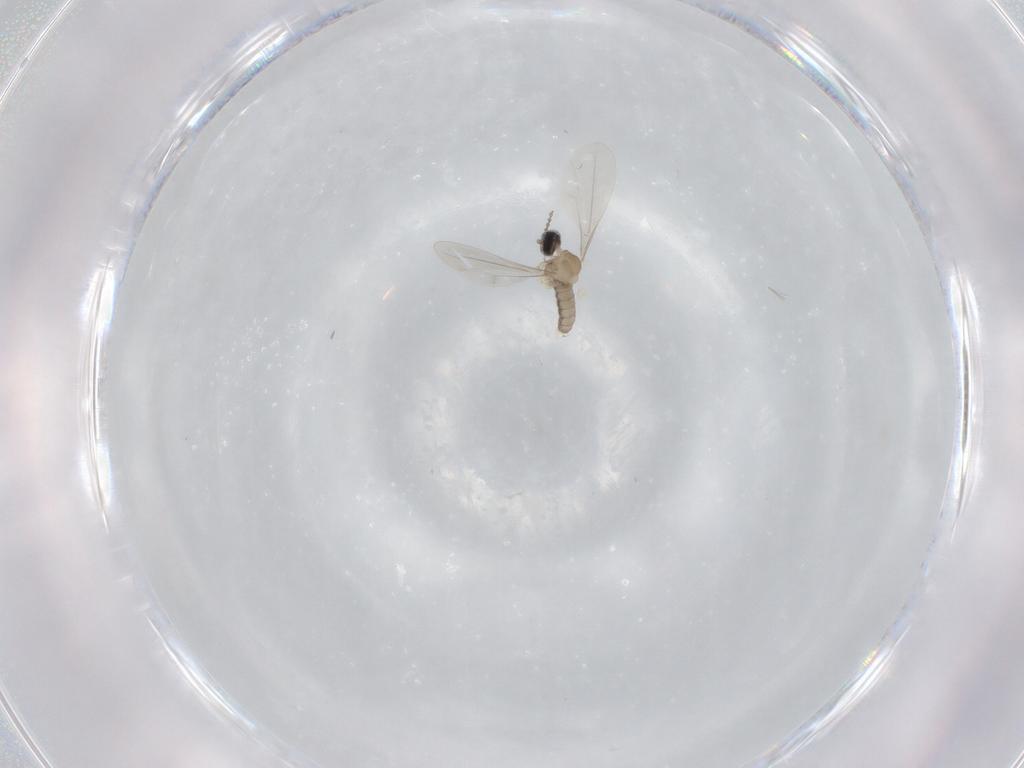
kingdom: Animalia
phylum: Arthropoda
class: Insecta
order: Diptera
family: Cecidomyiidae
